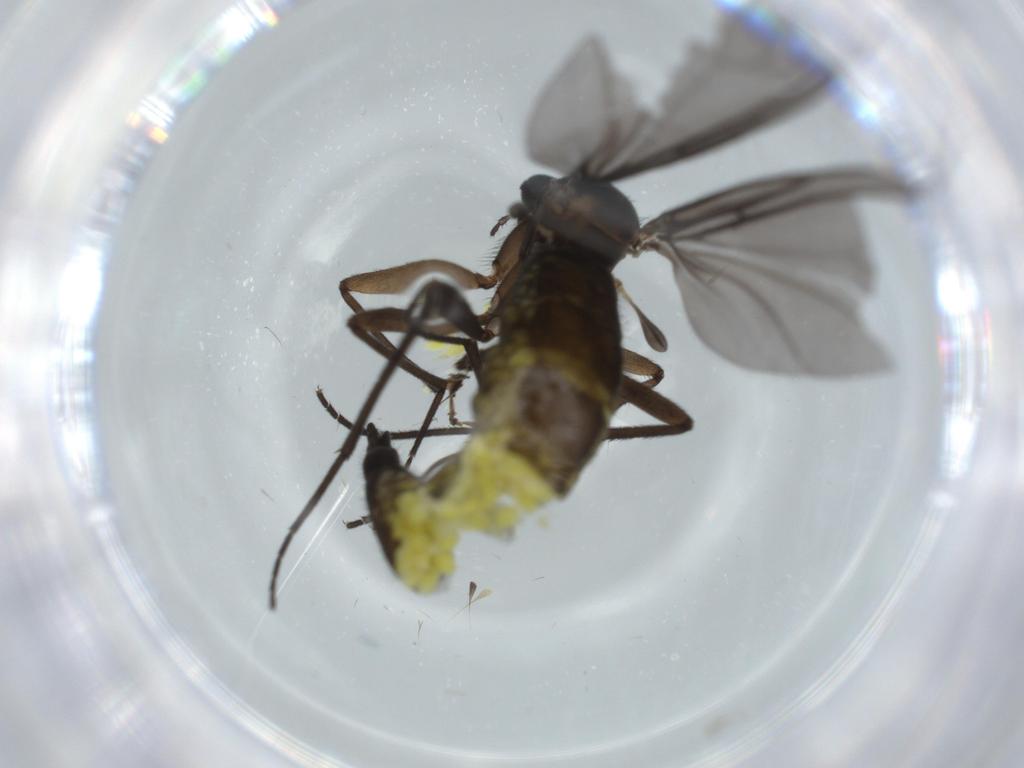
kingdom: Animalia
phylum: Arthropoda
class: Insecta
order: Diptera
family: Sciaridae
